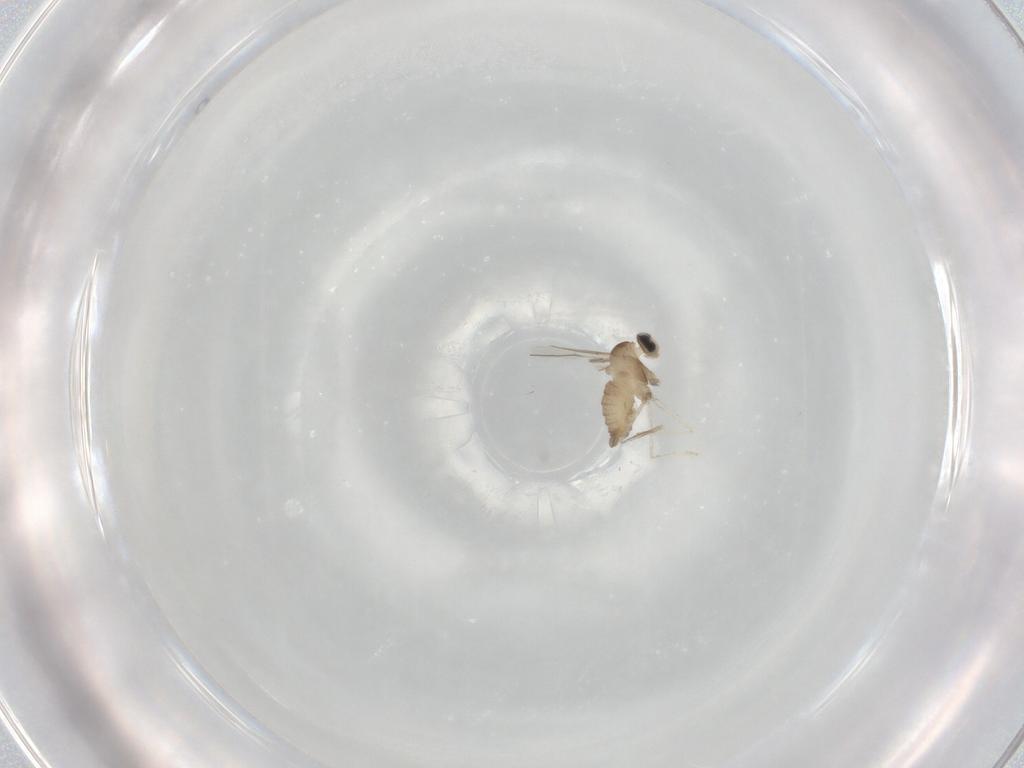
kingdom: Animalia
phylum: Arthropoda
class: Insecta
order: Diptera
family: Cecidomyiidae
